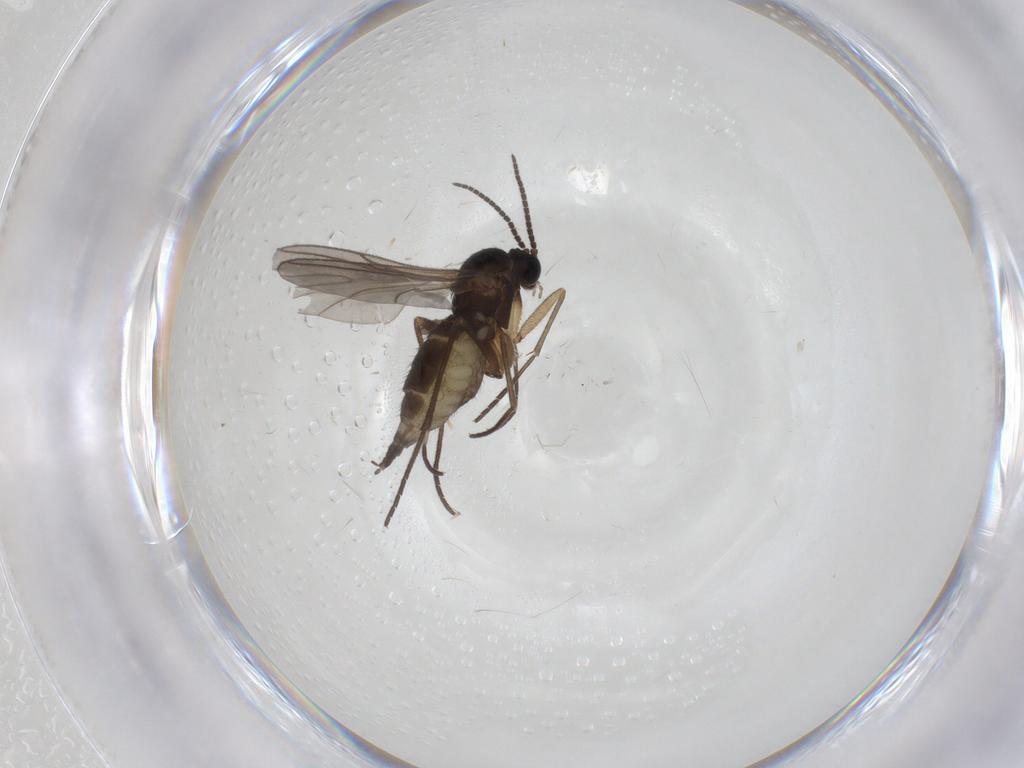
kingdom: Animalia
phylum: Arthropoda
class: Insecta
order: Diptera
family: Sciaridae
